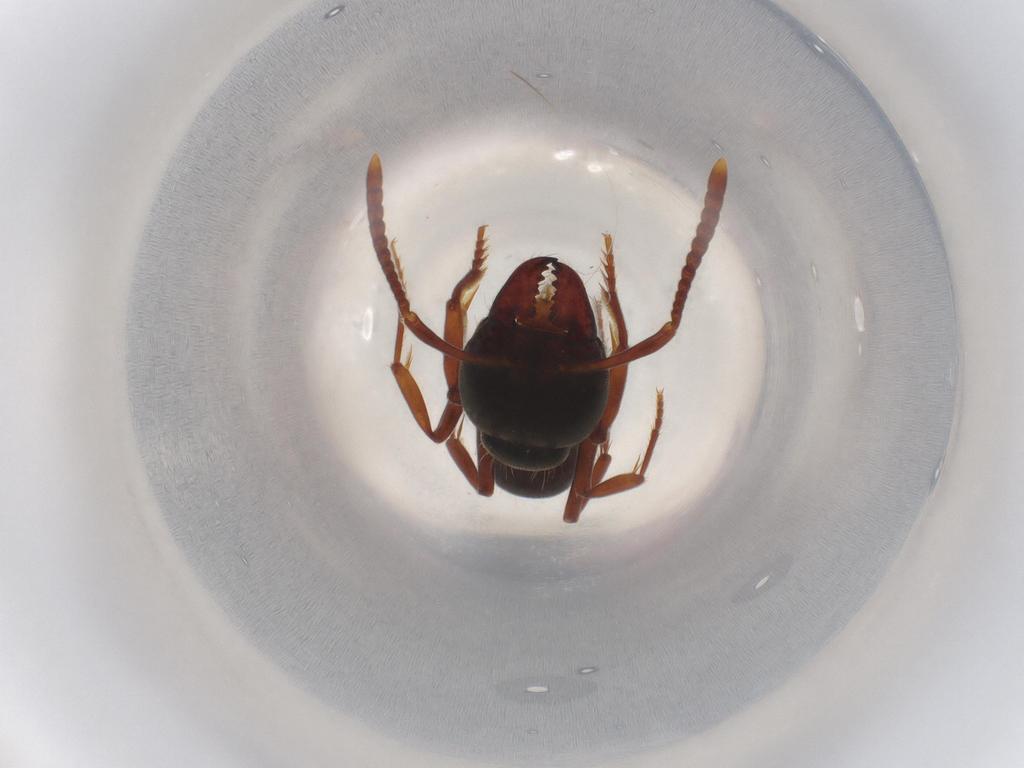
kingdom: Animalia
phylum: Arthropoda
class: Insecta
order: Hymenoptera
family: Formicidae
